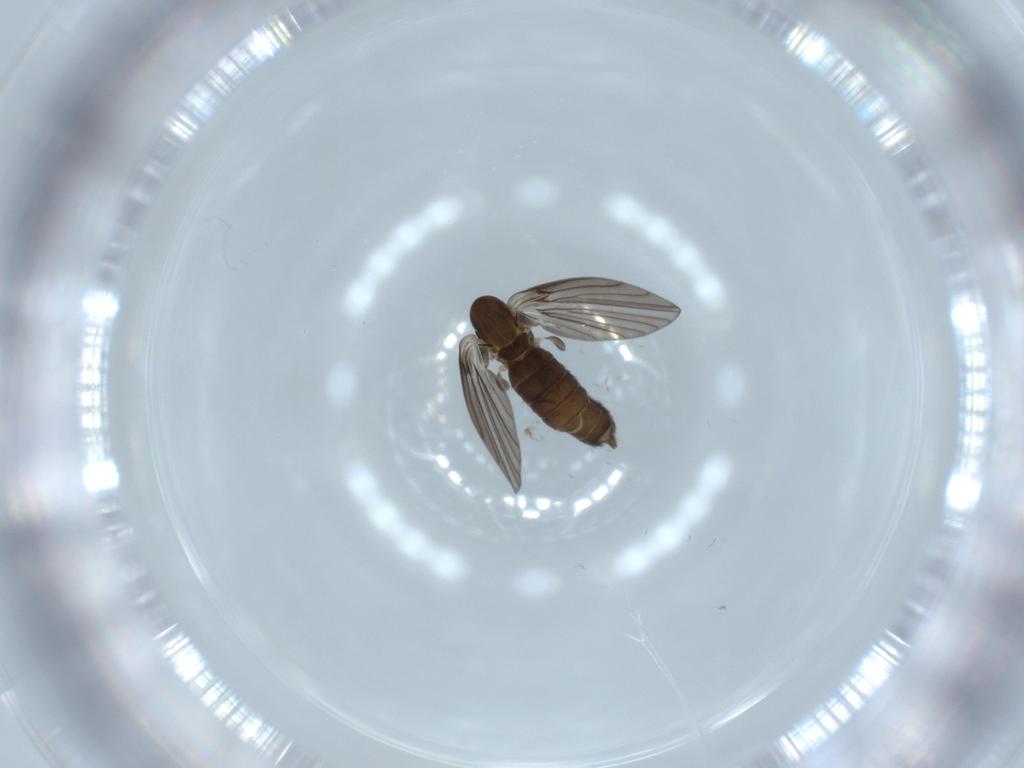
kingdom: Animalia
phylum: Arthropoda
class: Insecta
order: Diptera
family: Psychodidae
